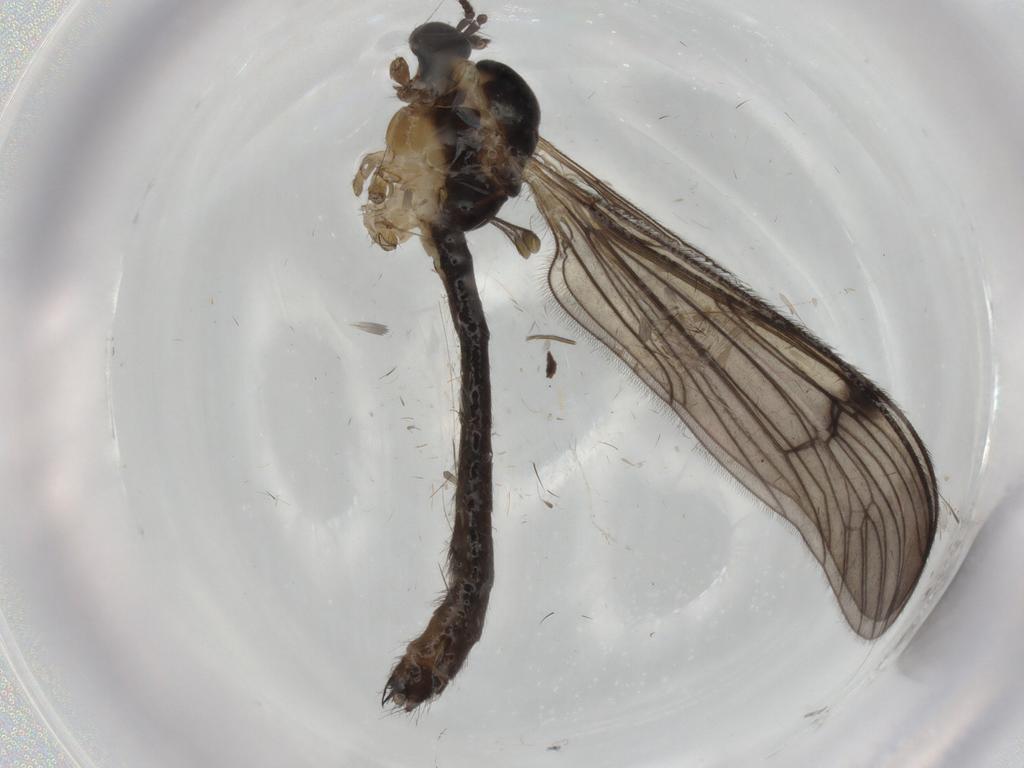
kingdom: Animalia
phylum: Arthropoda
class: Insecta
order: Diptera
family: Limoniidae
